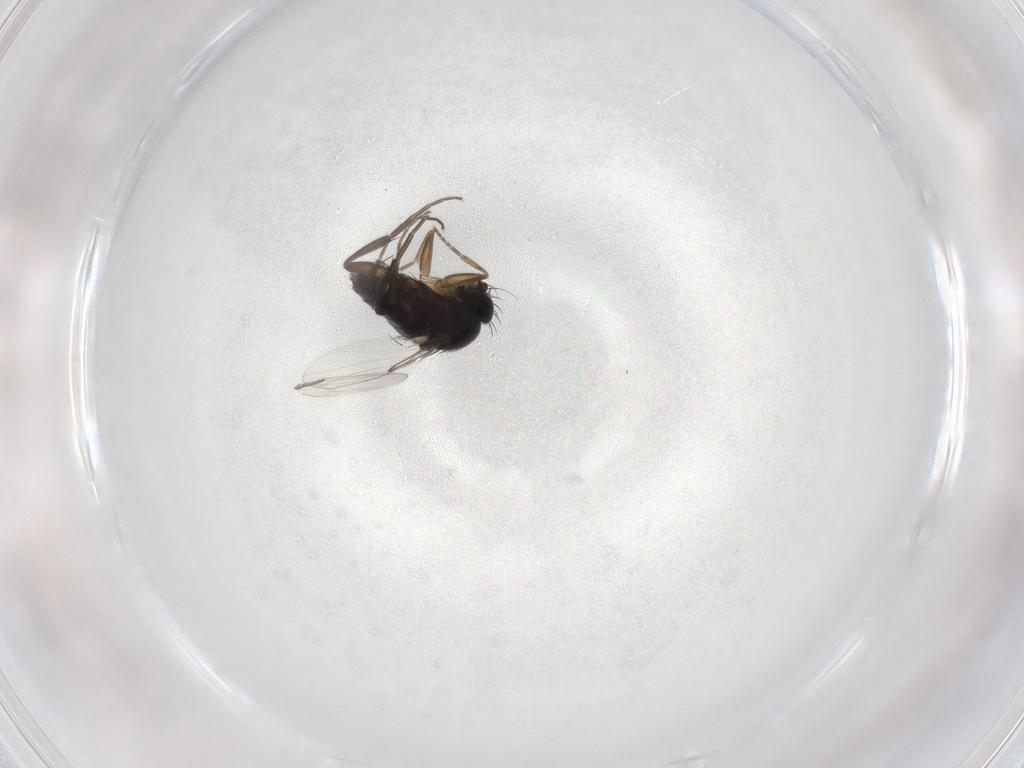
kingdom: Animalia
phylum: Arthropoda
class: Insecta
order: Diptera
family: Phoridae
